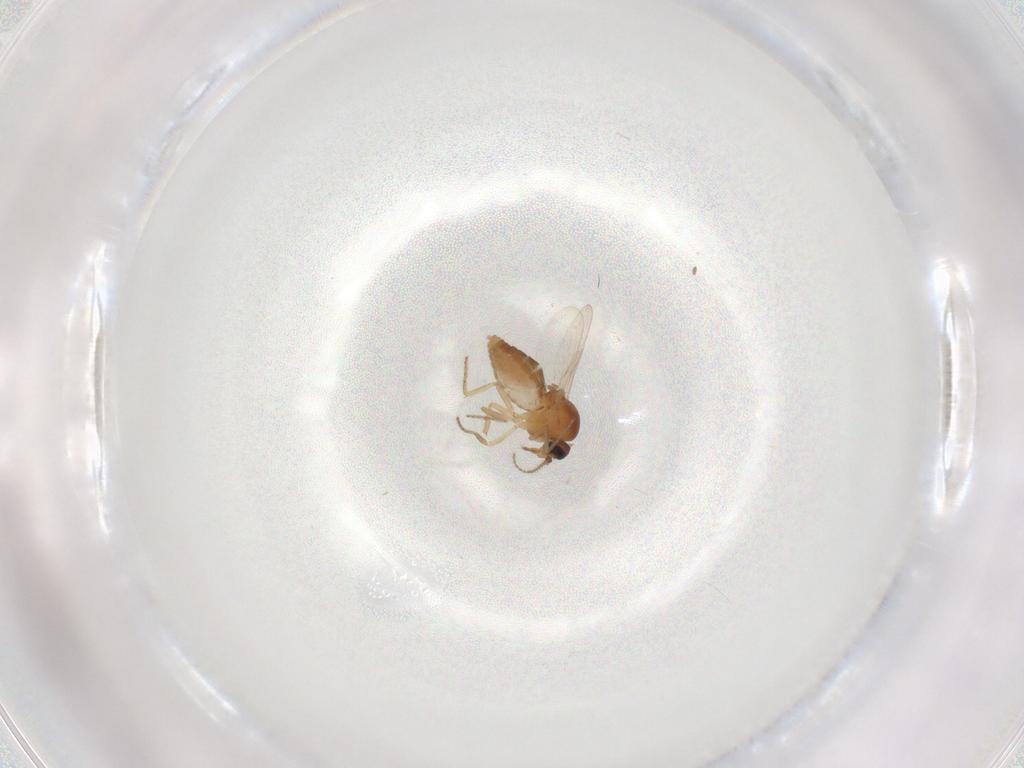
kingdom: Animalia
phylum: Arthropoda
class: Insecta
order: Diptera
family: Ceratopogonidae
